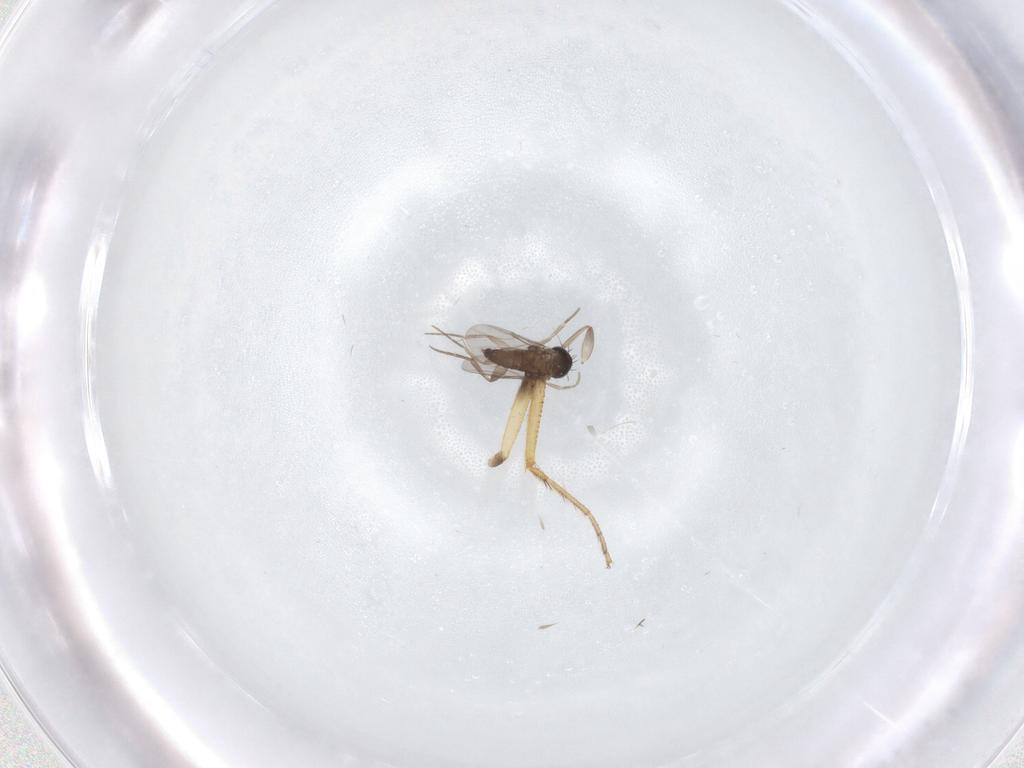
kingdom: Animalia
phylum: Arthropoda
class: Insecta
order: Diptera
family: Ceratopogonidae
